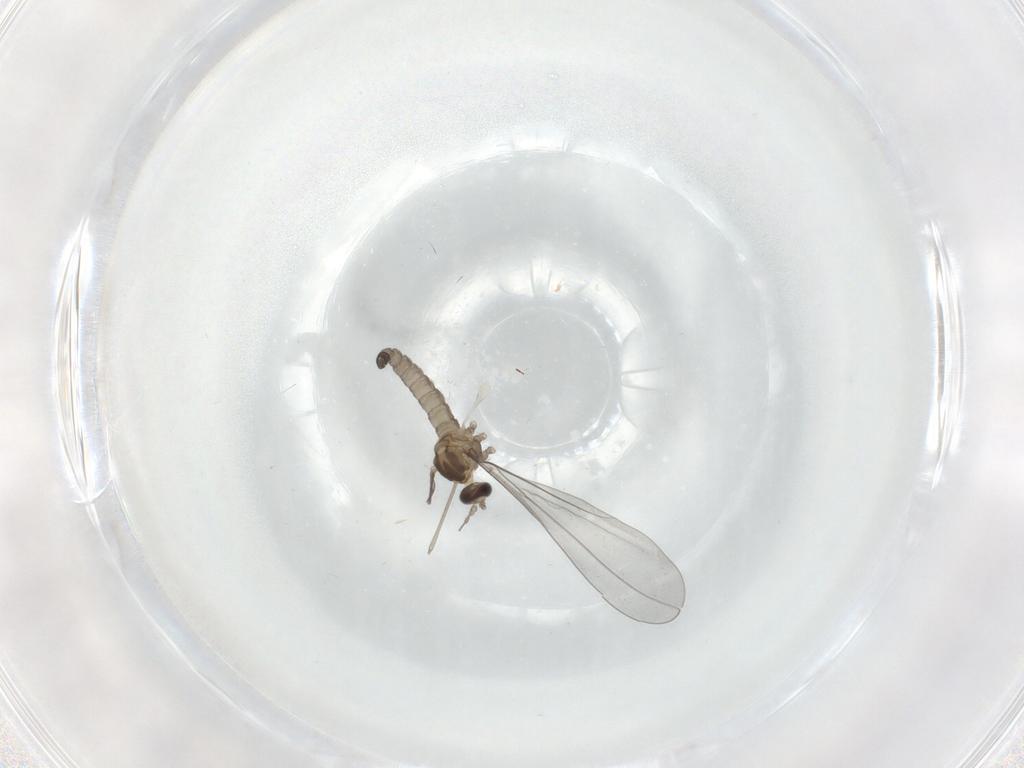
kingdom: Animalia
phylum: Arthropoda
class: Insecta
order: Diptera
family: Cecidomyiidae
